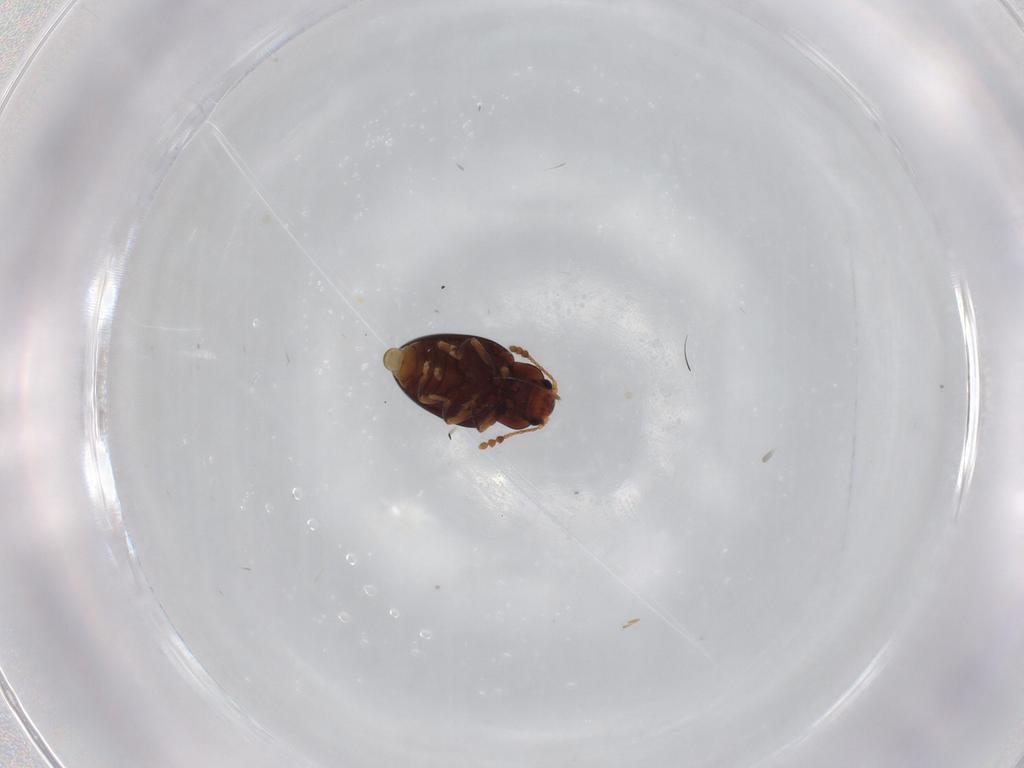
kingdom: Animalia
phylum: Arthropoda
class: Insecta
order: Coleoptera
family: Erotylidae
